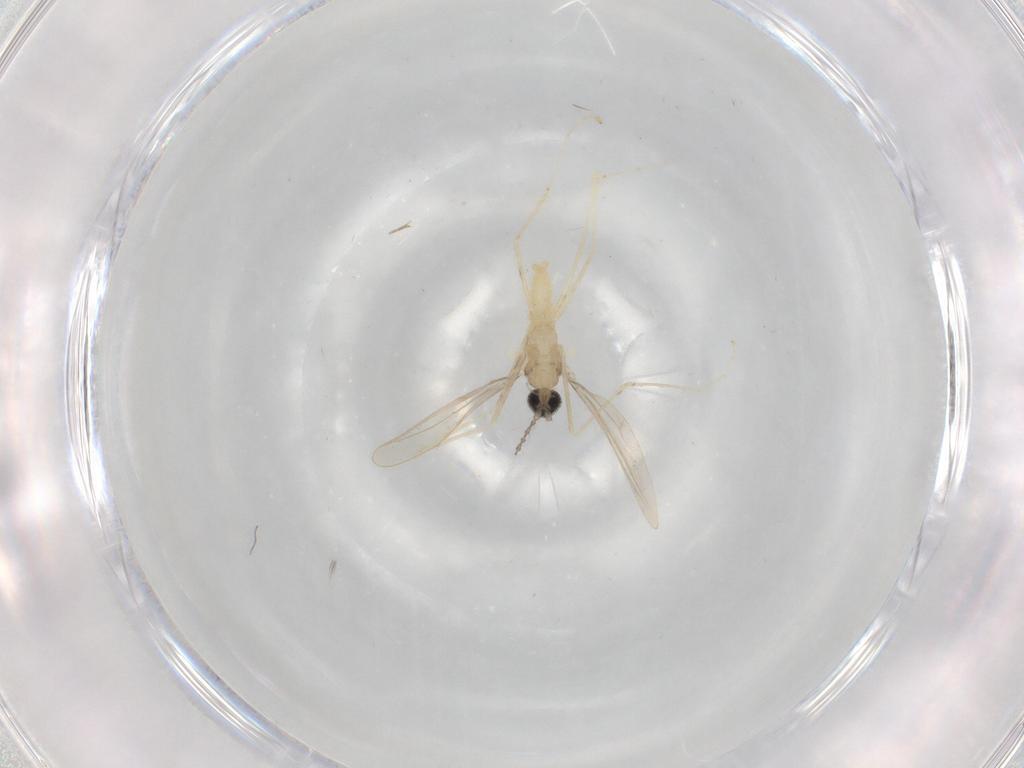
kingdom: Animalia
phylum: Arthropoda
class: Insecta
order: Diptera
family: Cecidomyiidae
